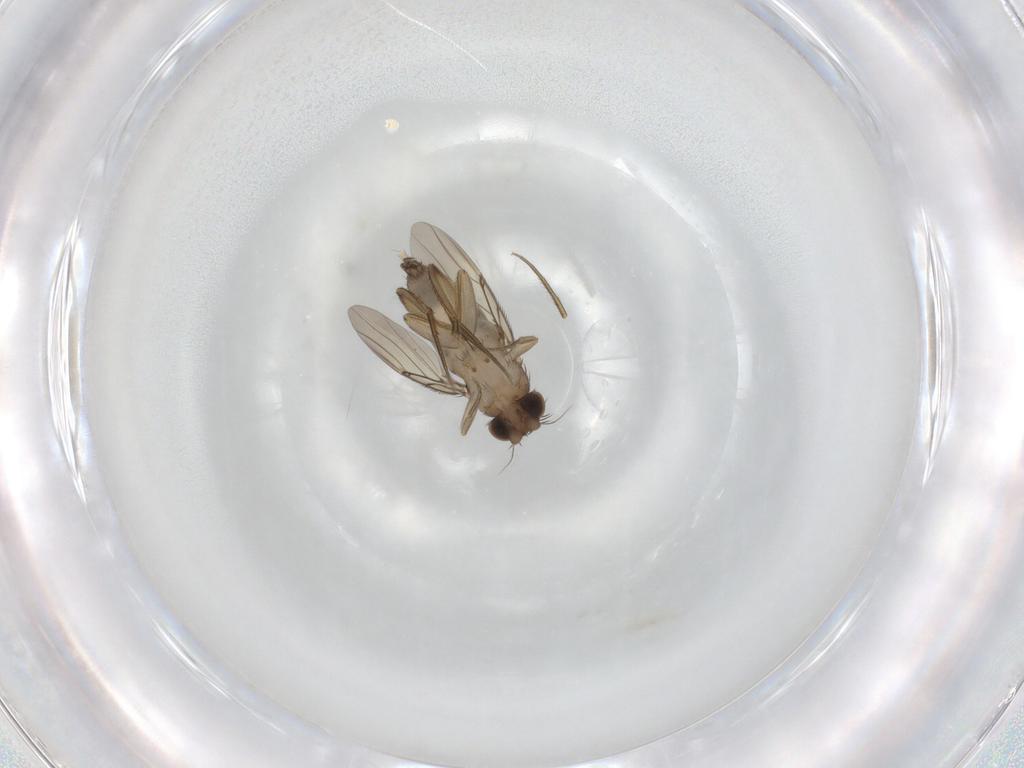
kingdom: Animalia
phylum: Arthropoda
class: Insecta
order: Diptera
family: Phoridae
